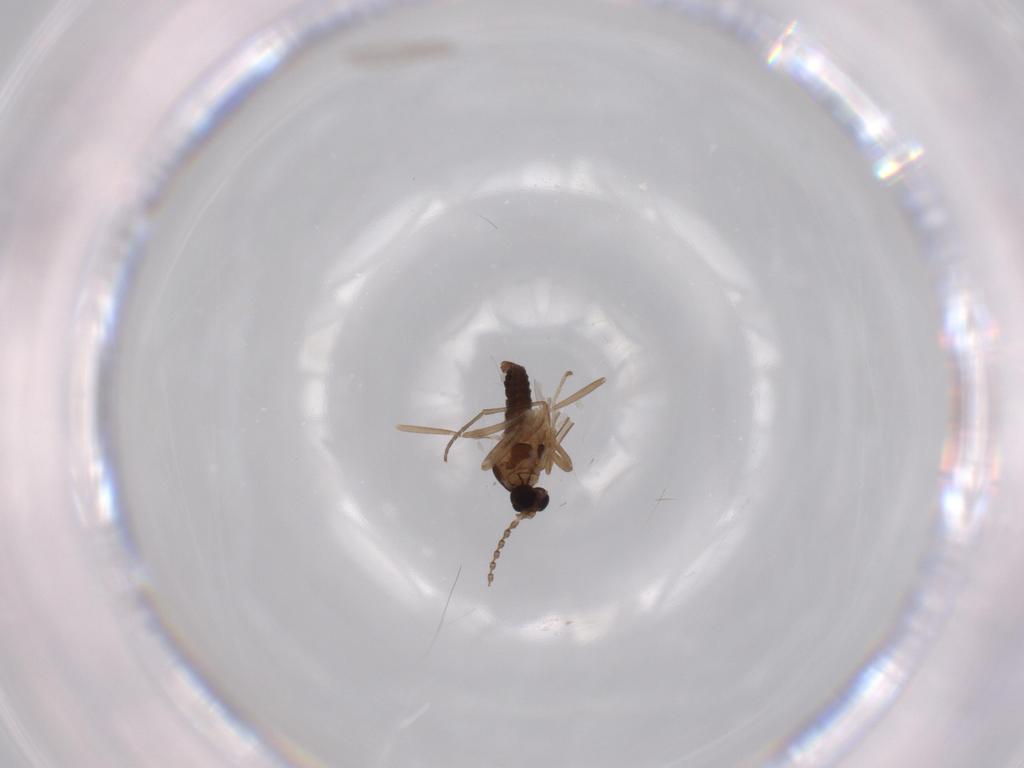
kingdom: Animalia
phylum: Arthropoda
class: Insecta
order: Diptera
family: Cecidomyiidae
